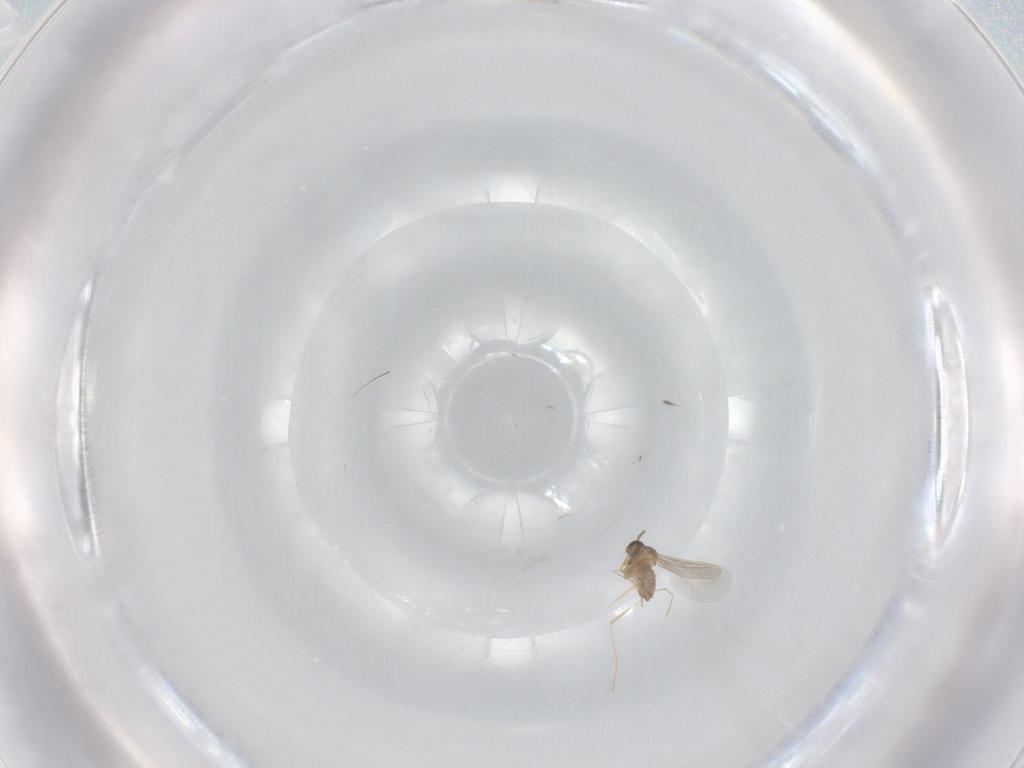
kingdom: Animalia
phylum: Arthropoda
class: Insecta
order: Diptera
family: Cecidomyiidae
